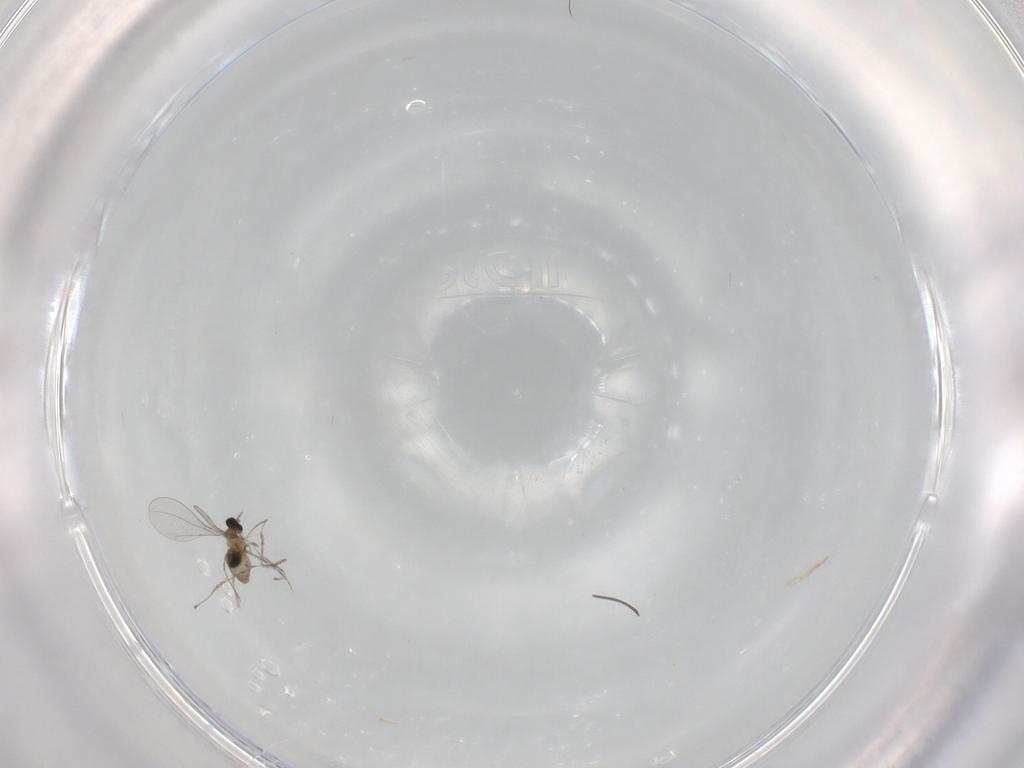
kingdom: Animalia
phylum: Arthropoda
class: Insecta
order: Diptera
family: Cecidomyiidae
